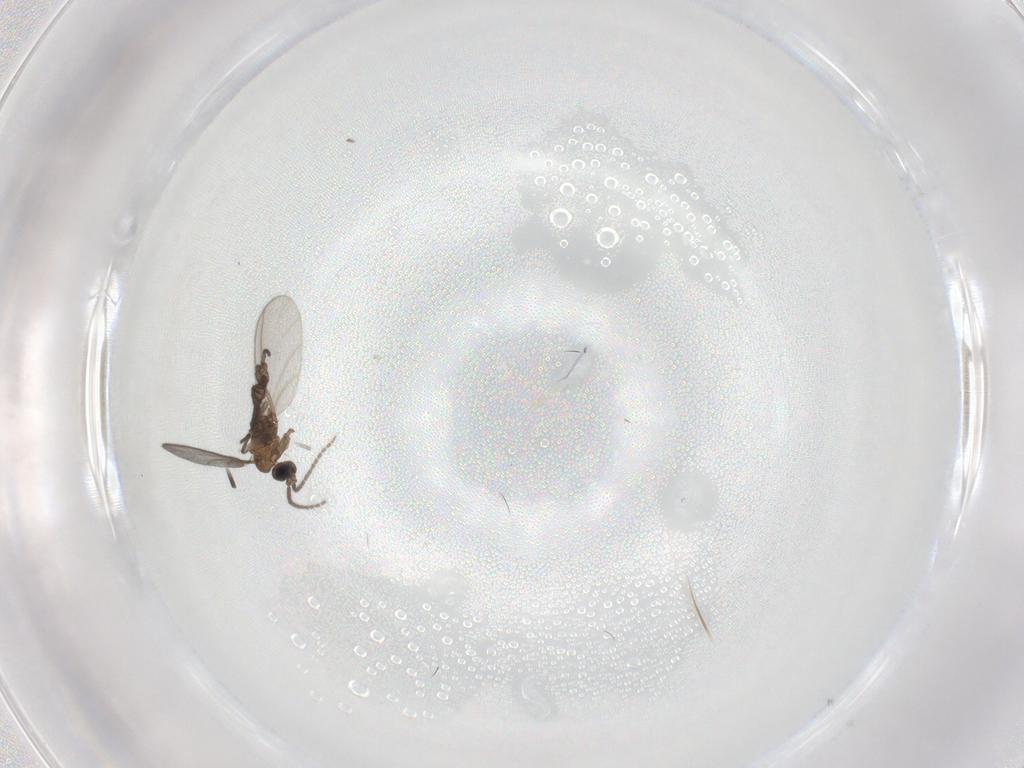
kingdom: Animalia
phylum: Arthropoda
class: Insecta
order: Diptera
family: Sciaridae
